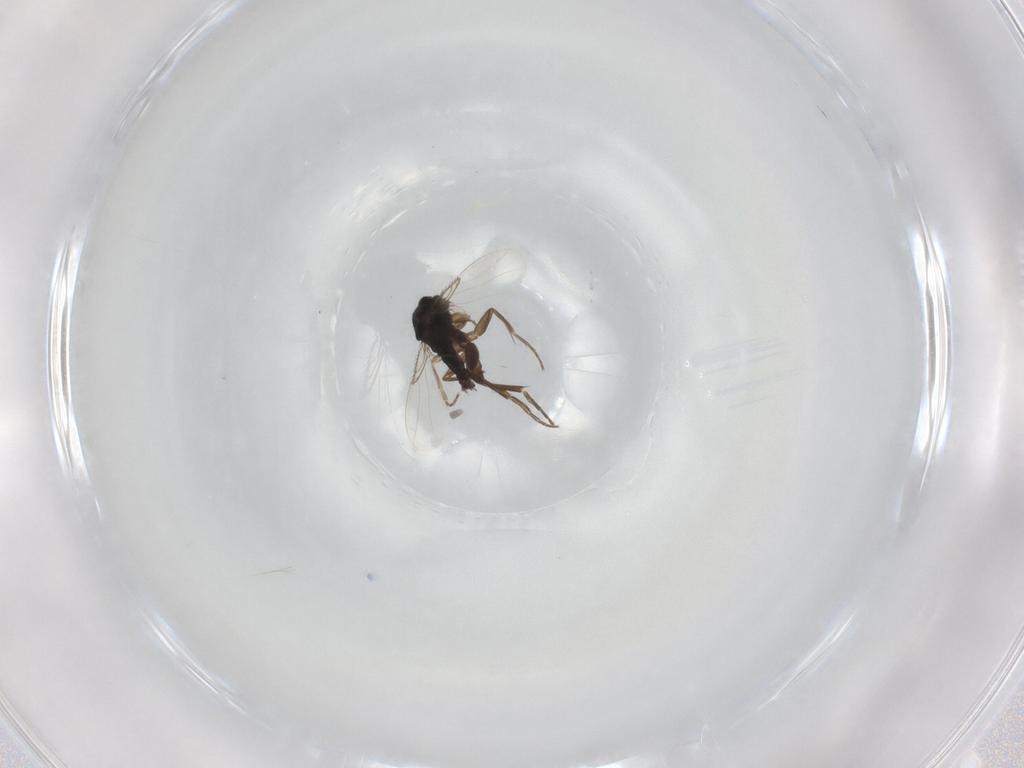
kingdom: Animalia
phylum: Arthropoda
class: Insecta
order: Diptera
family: Phoridae
